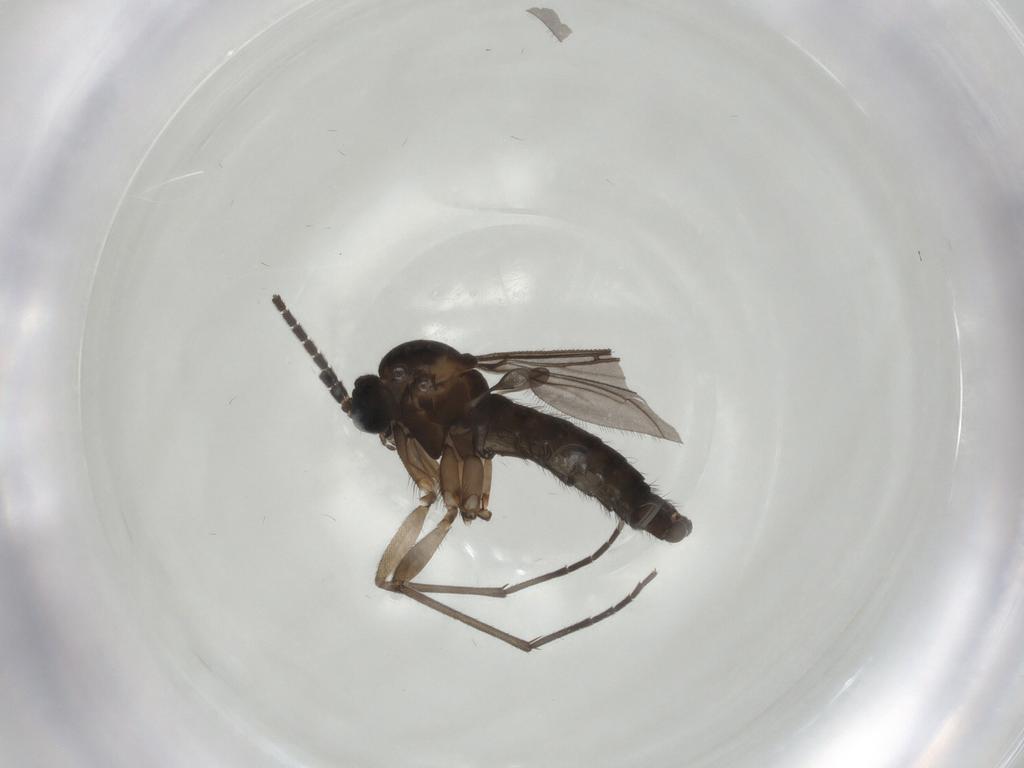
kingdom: Animalia
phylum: Arthropoda
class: Insecta
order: Diptera
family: Sciaridae
